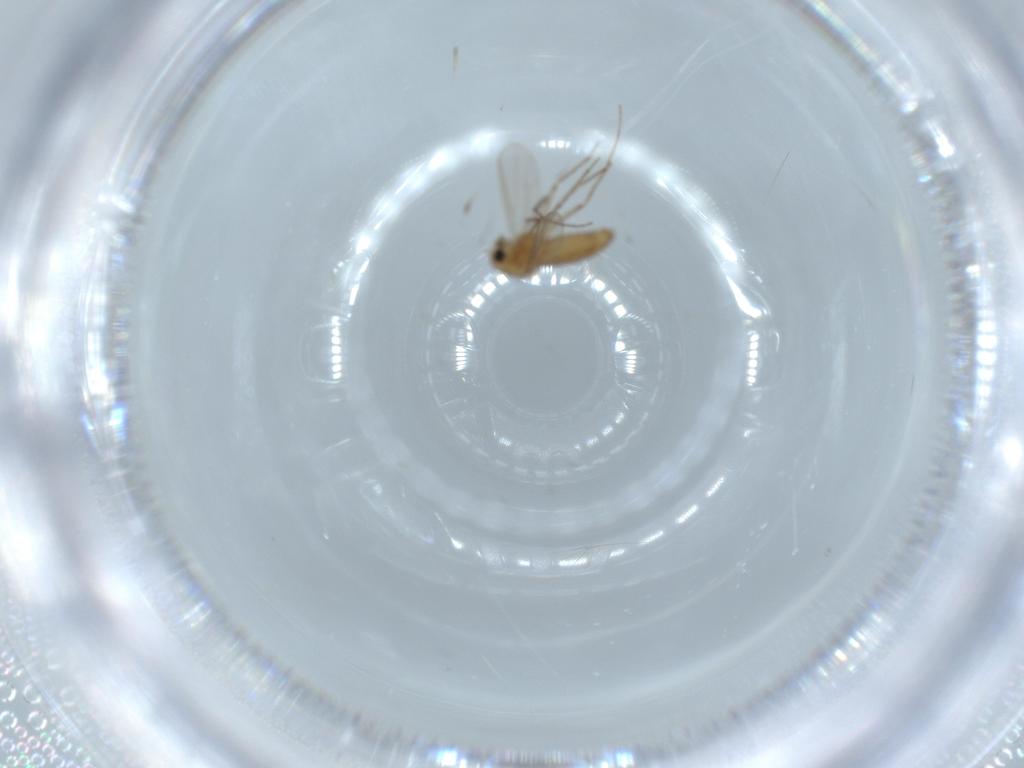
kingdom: Animalia
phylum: Arthropoda
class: Insecta
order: Diptera
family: Chironomidae
